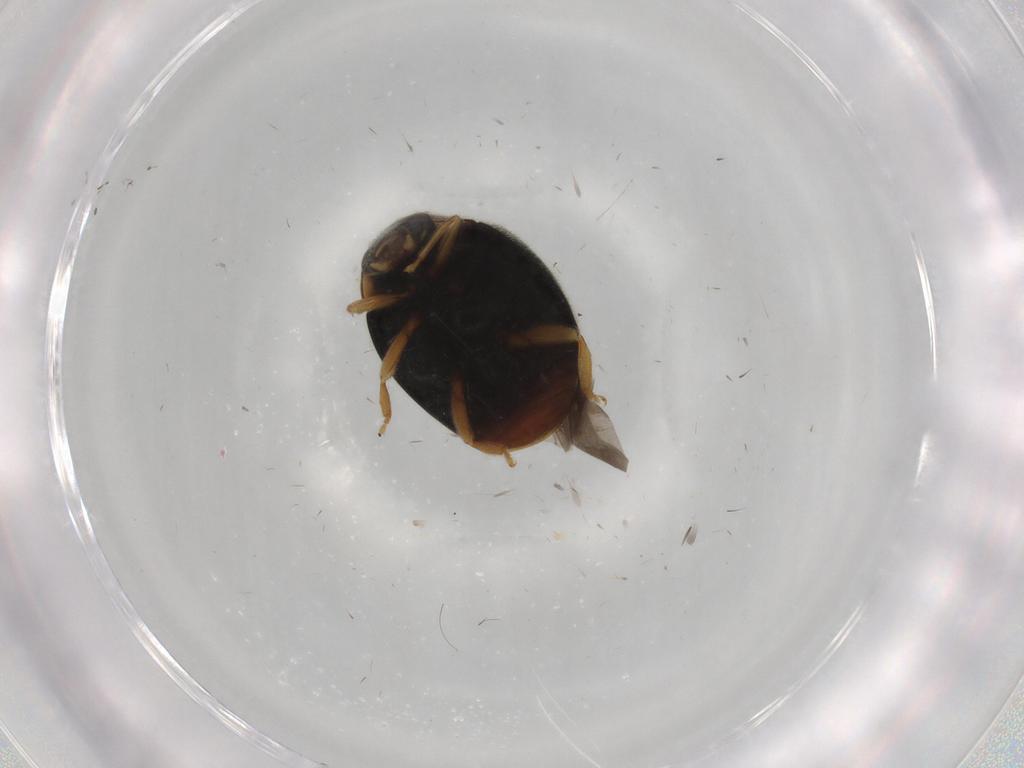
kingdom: Animalia
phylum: Arthropoda
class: Insecta
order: Coleoptera
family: Coccinellidae
